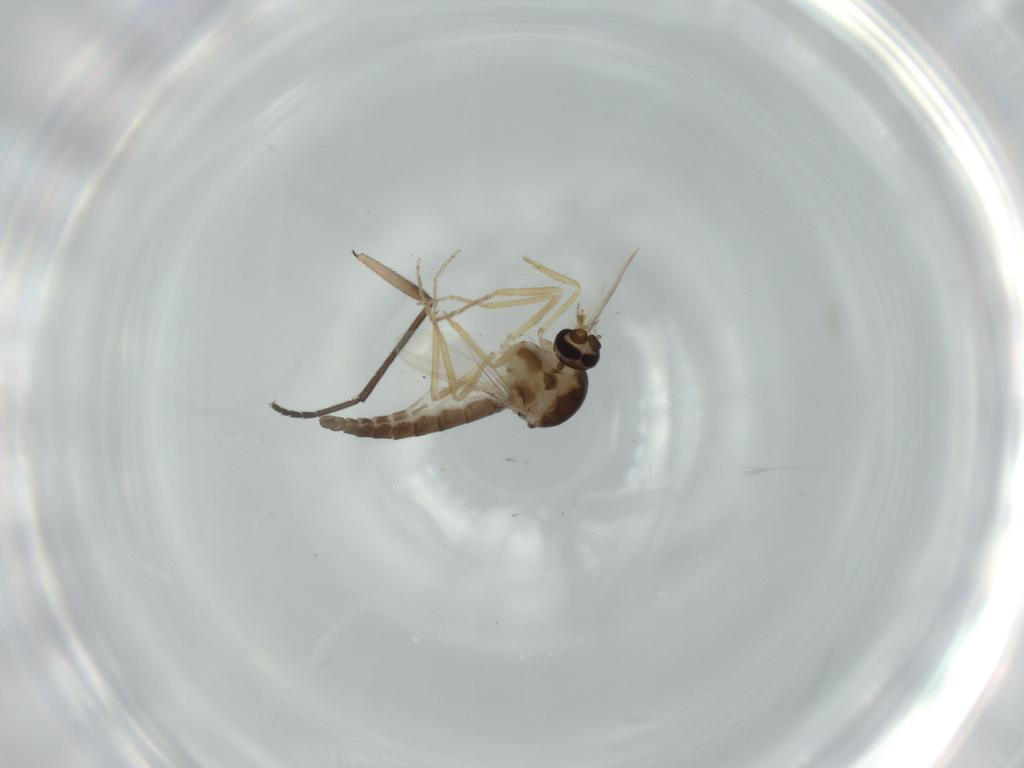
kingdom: Animalia
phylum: Arthropoda
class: Insecta
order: Diptera
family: Ceratopogonidae
